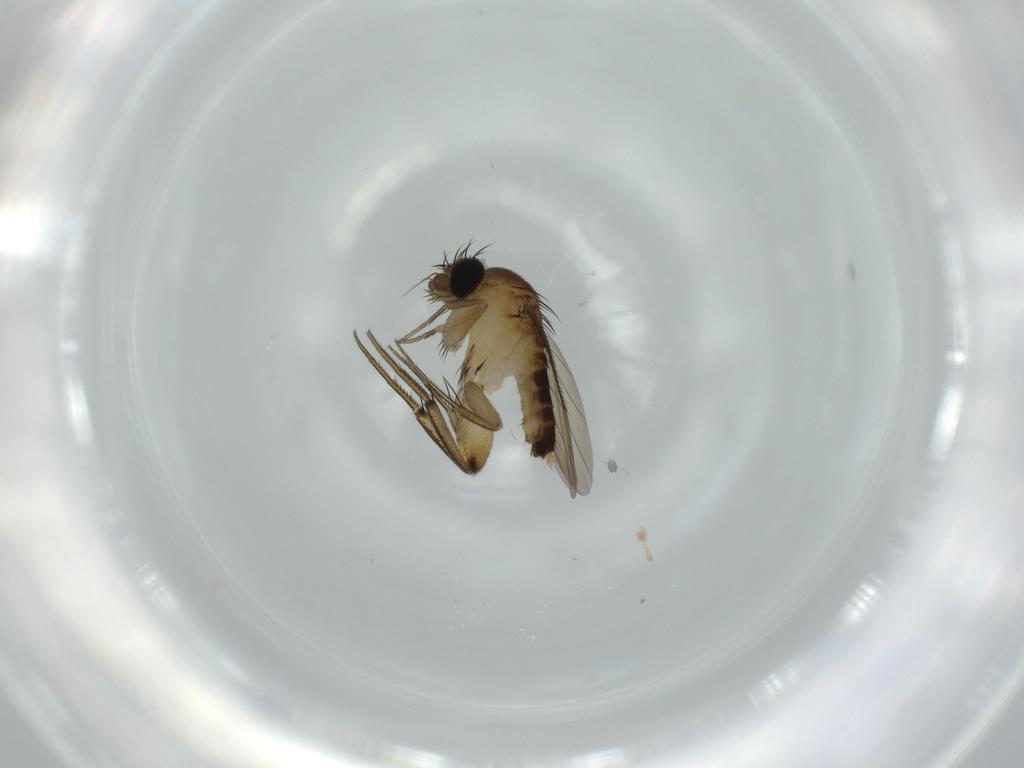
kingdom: Animalia
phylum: Arthropoda
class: Insecta
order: Diptera
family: Phoridae
